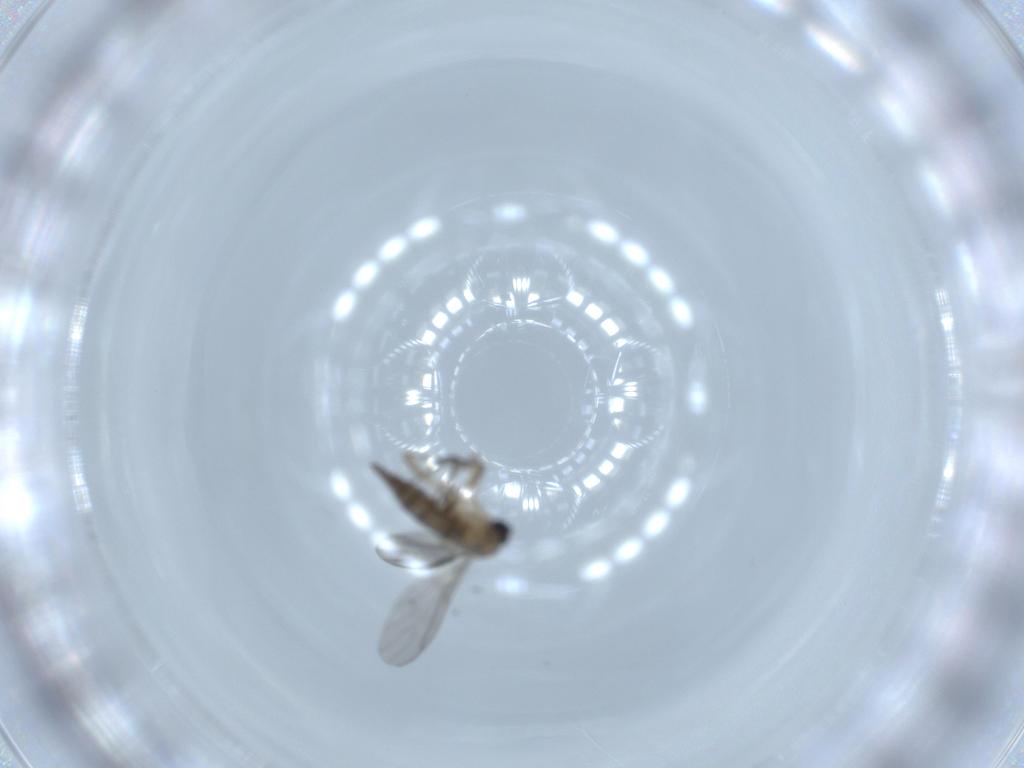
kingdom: Animalia
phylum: Arthropoda
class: Insecta
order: Diptera
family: Sciaridae
